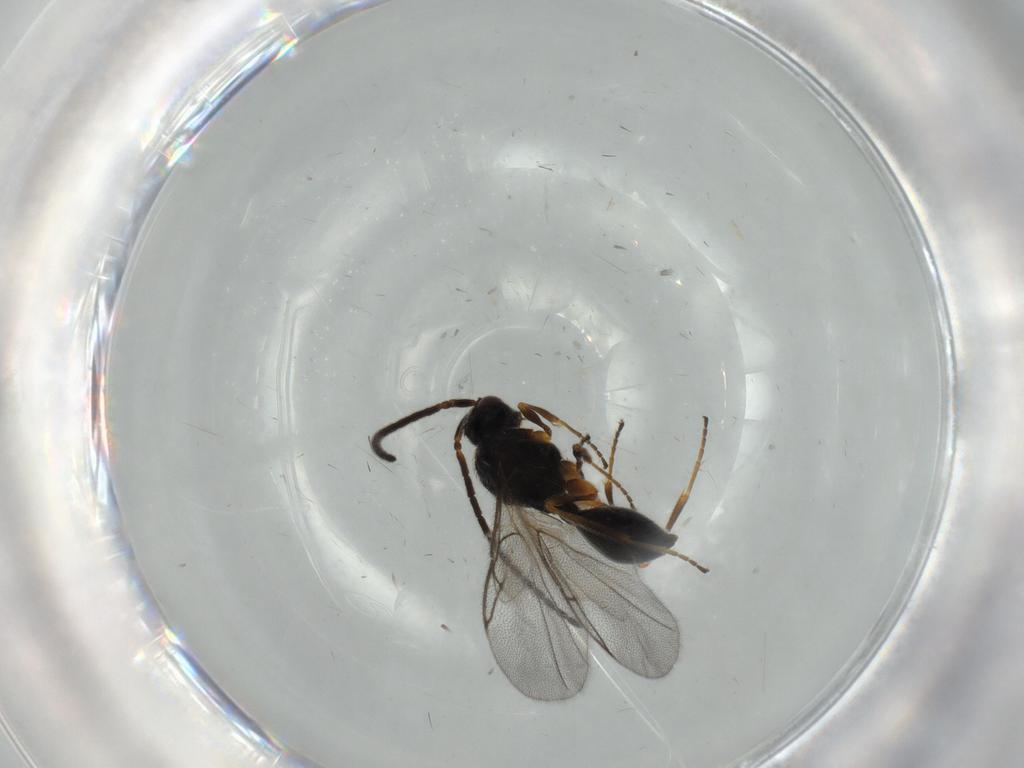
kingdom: Animalia
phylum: Arthropoda
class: Insecta
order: Hymenoptera
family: Diapriidae
